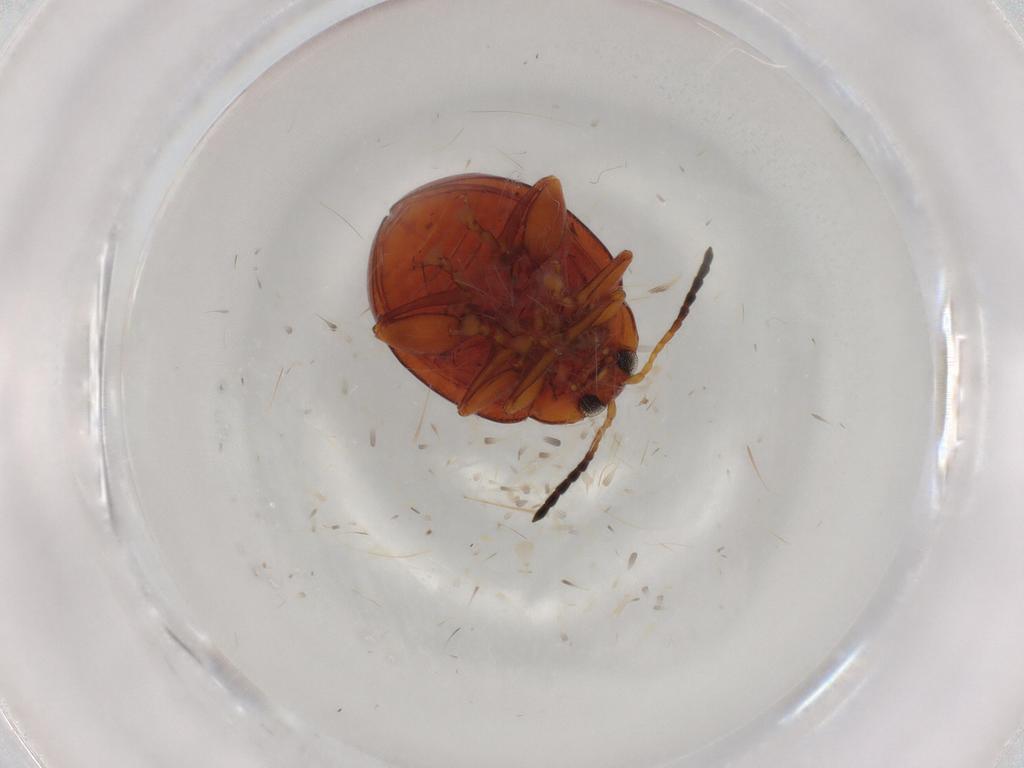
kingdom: Animalia
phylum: Arthropoda
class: Insecta
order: Coleoptera
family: Chrysomelidae
